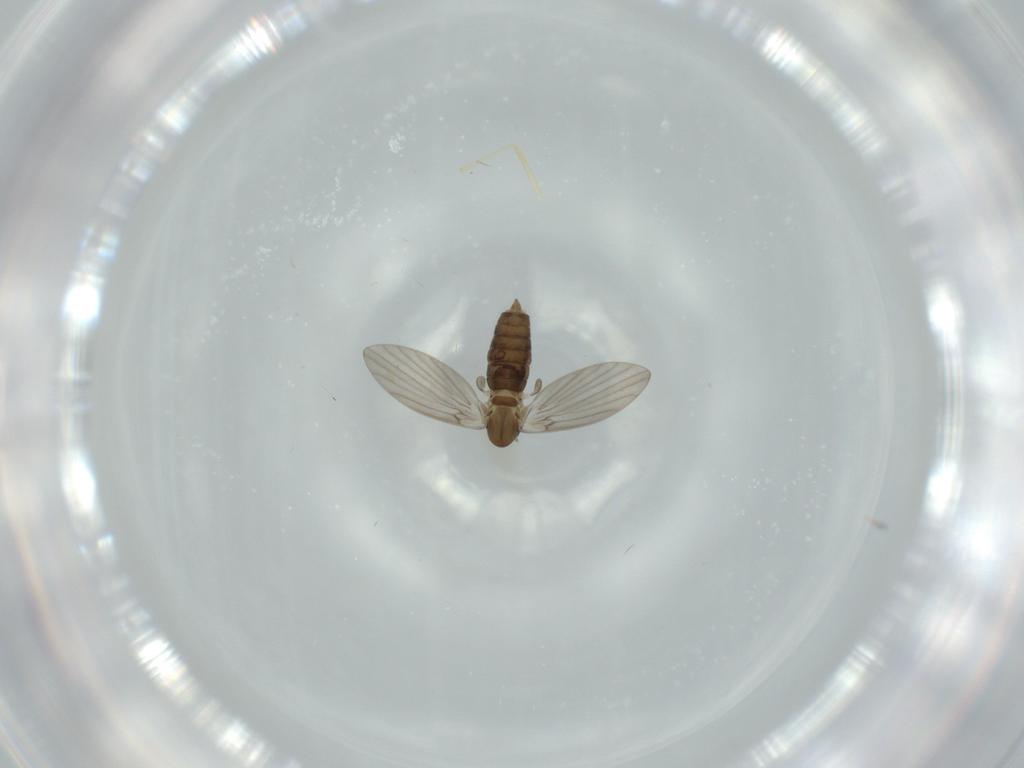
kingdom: Animalia
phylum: Arthropoda
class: Insecta
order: Diptera
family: Cecidomyiidae
